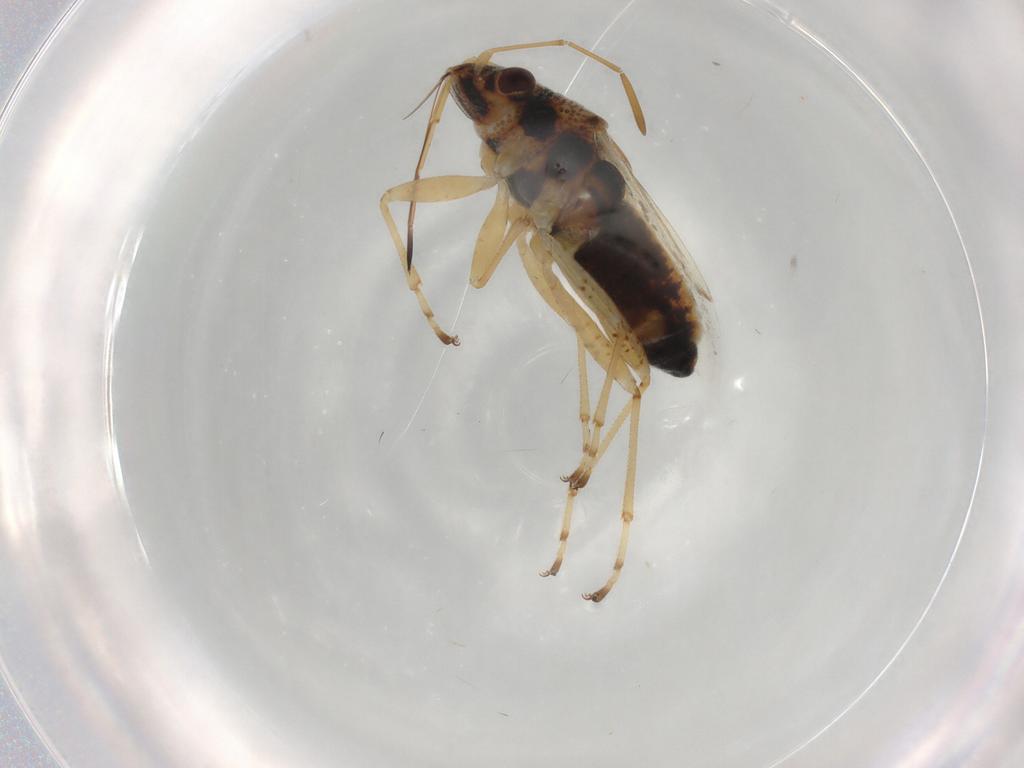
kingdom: Animalia
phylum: Arthropoda
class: Insecta
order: Hemiptera
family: Lygaeidae
